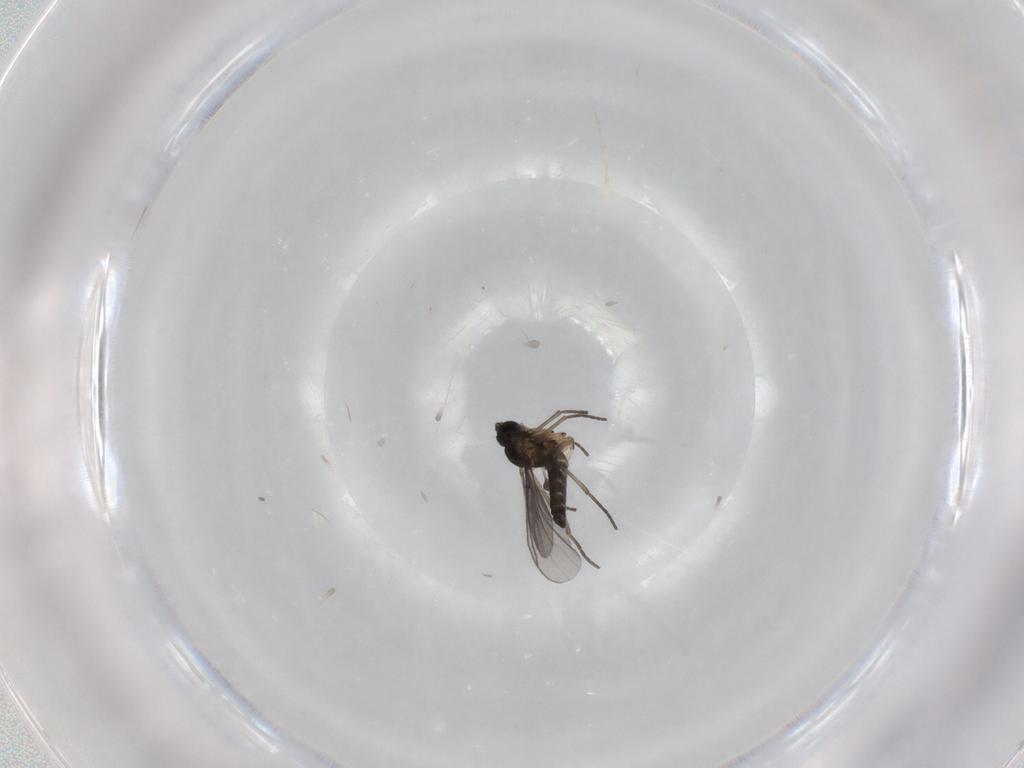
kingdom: Animalia
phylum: Arthropoda
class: Insecta
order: Diptera
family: Sciaridae
